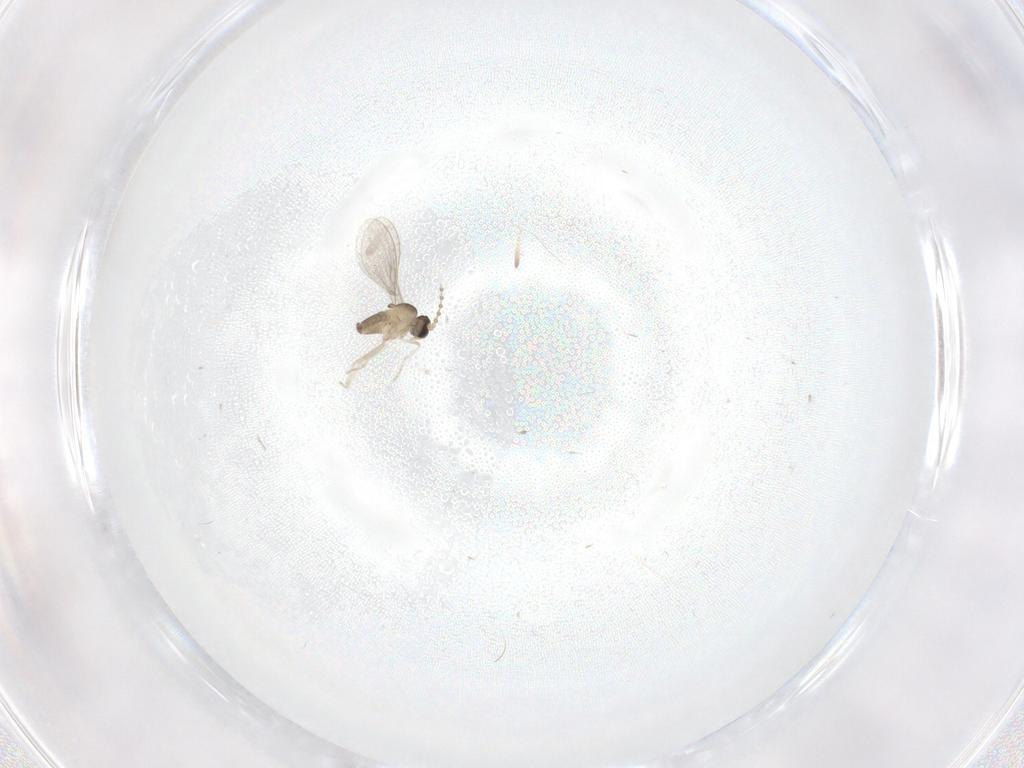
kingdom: Animalia
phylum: Arthropoda
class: Insecta
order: Diptera
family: Cecidomyiidae
